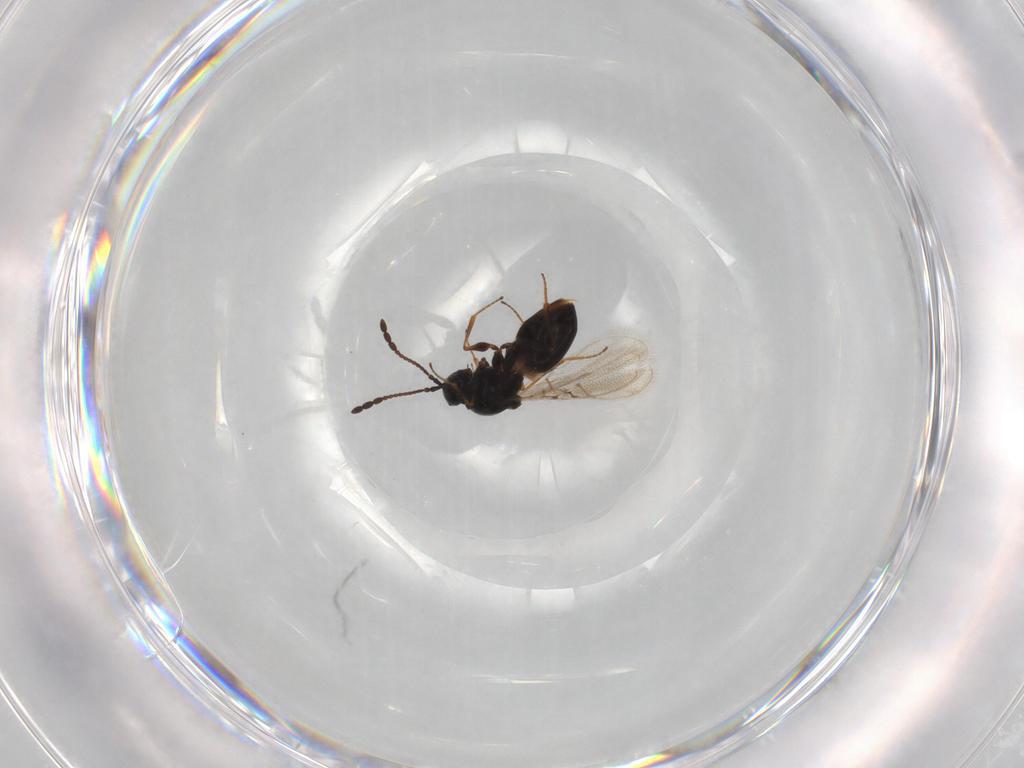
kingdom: Animalia
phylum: Arthropoda
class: Insecta
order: Hymenoptera
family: Figitidae
